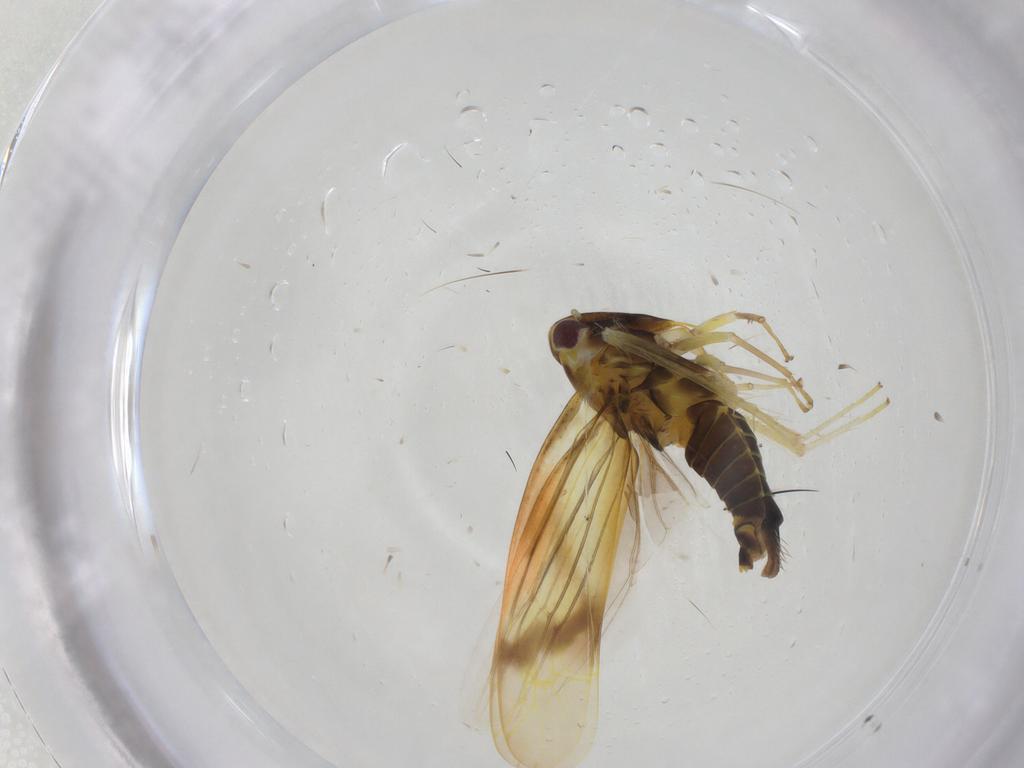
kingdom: Animalia
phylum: Arthropoda
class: Insecta
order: Hemiptera
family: Cicadellidae
